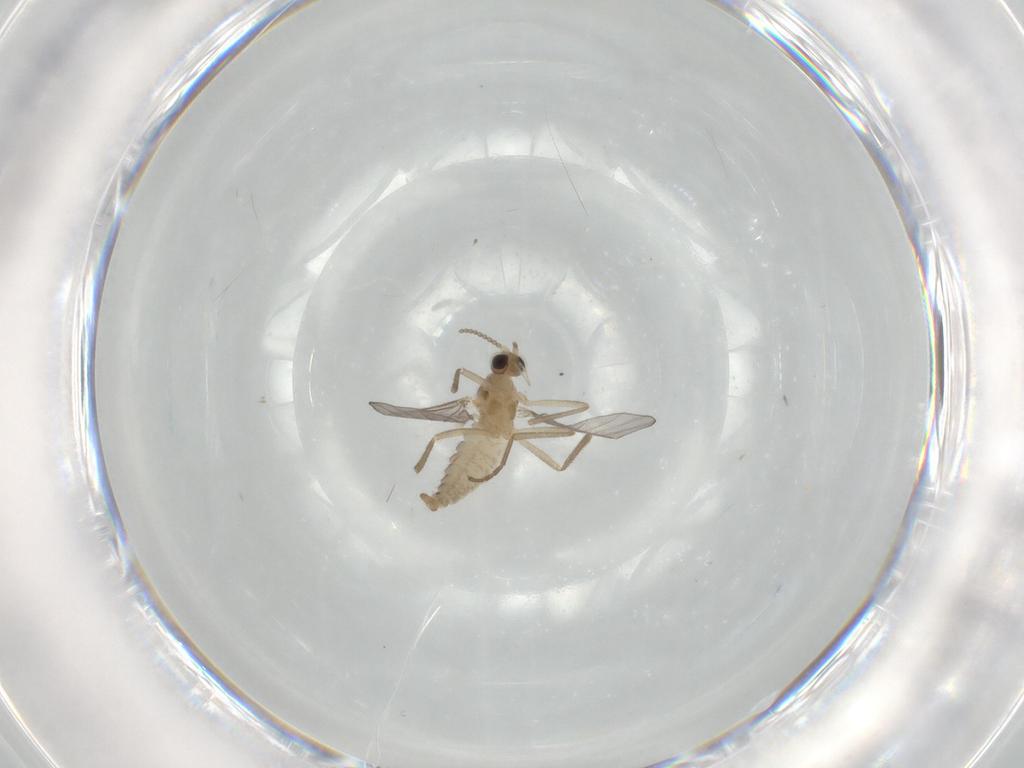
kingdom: Animalia
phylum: Arthropoda
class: Insecta
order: Diptera
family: Cecidomyiidae
